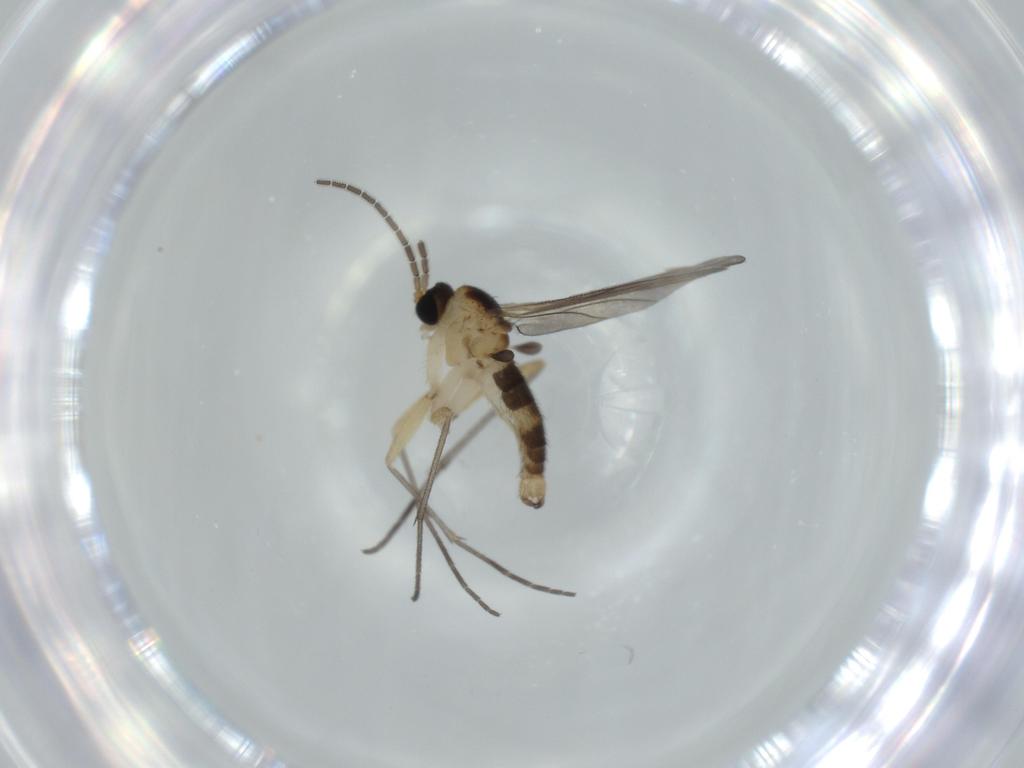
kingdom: Animalia
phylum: Arthropoda
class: Insecta
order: Diptera
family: Sciaridae
